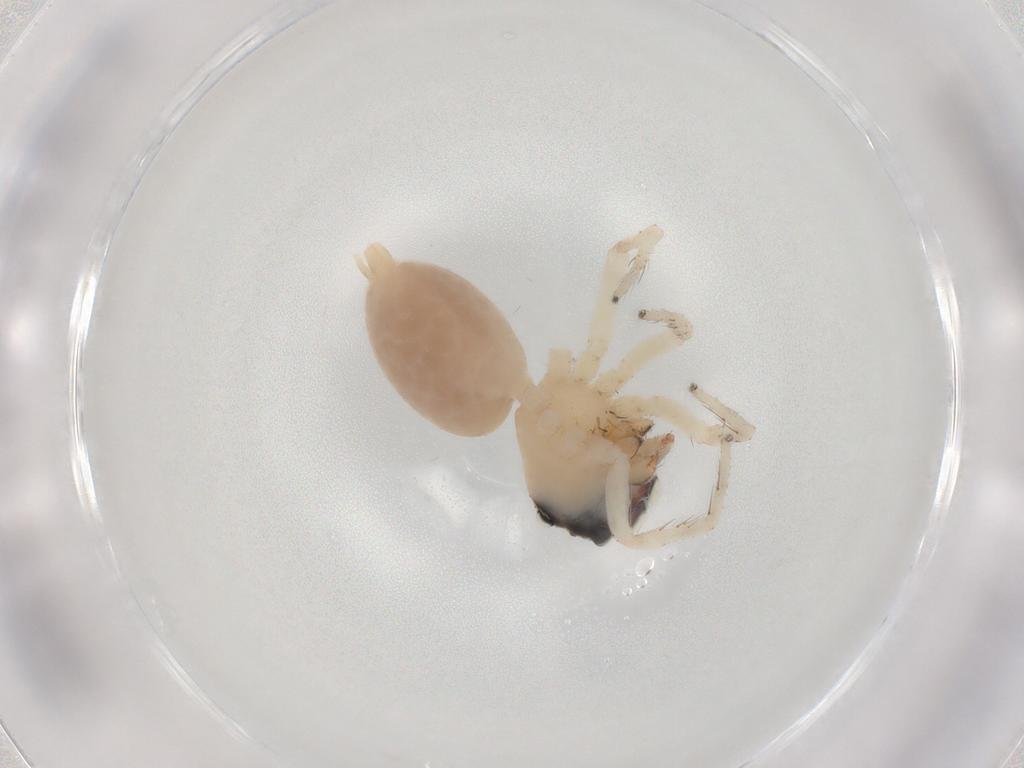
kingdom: Animalia
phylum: Arthropoda
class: Arachnida
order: Araneae
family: Salticidae
